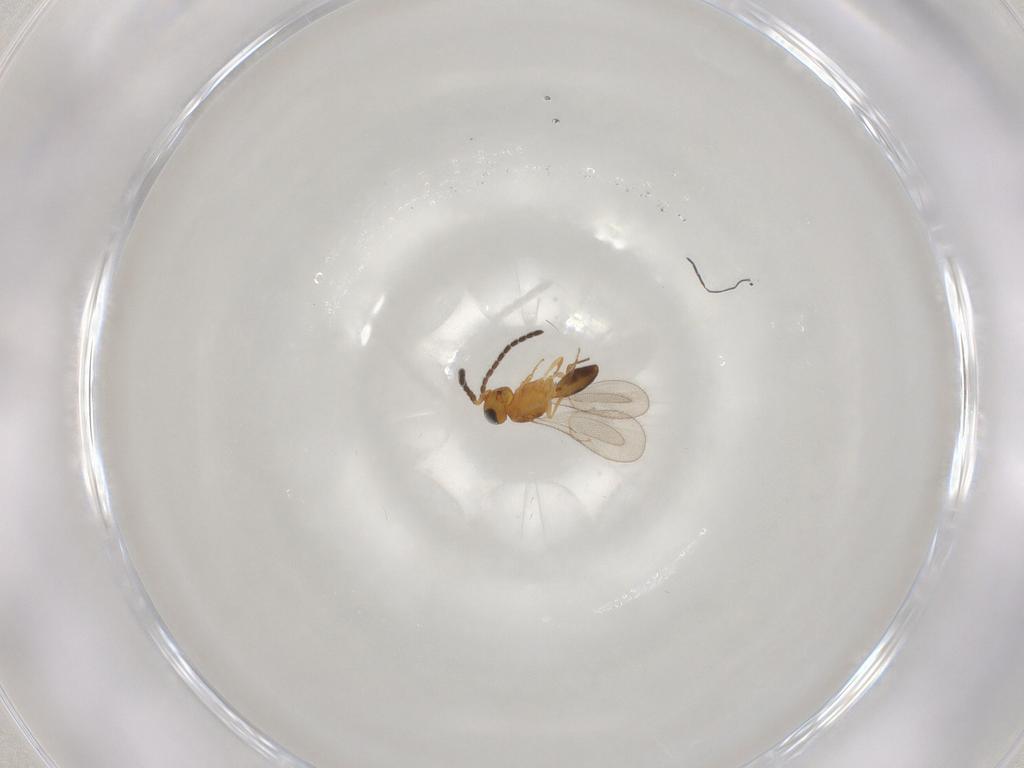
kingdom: Animalia
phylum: Arthropoda
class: Insecta
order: Hymenoptera
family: Scelionidae
